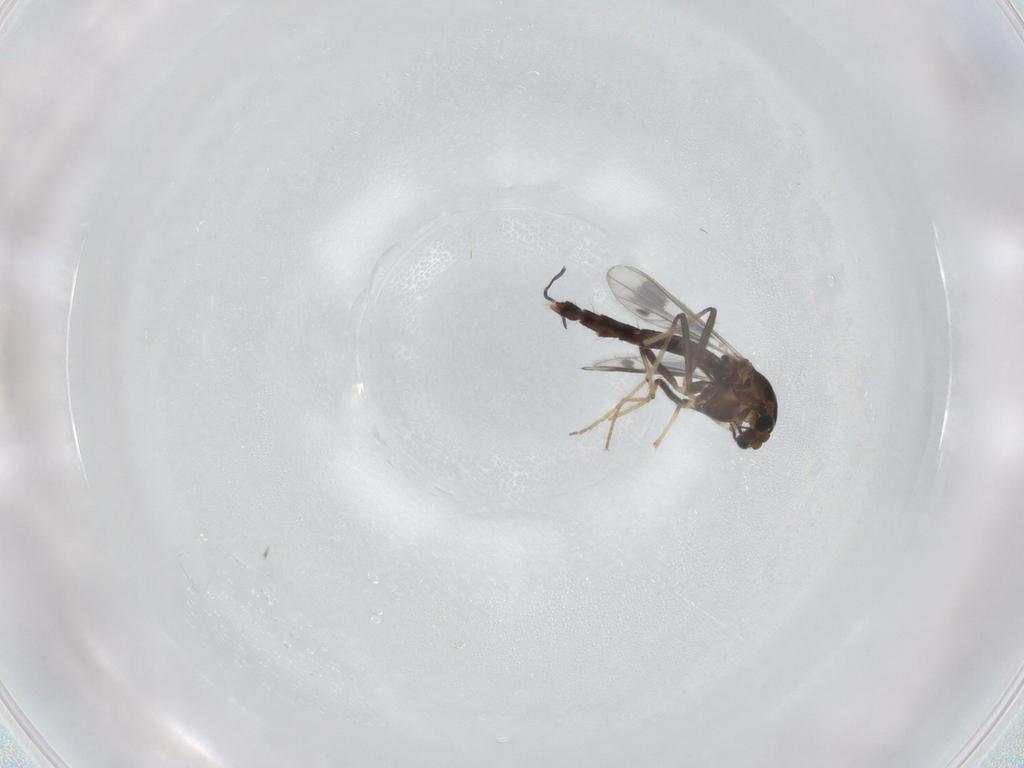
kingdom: Animalia
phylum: Arthropoda
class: Insecta
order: Diptera
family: Chironomidae
